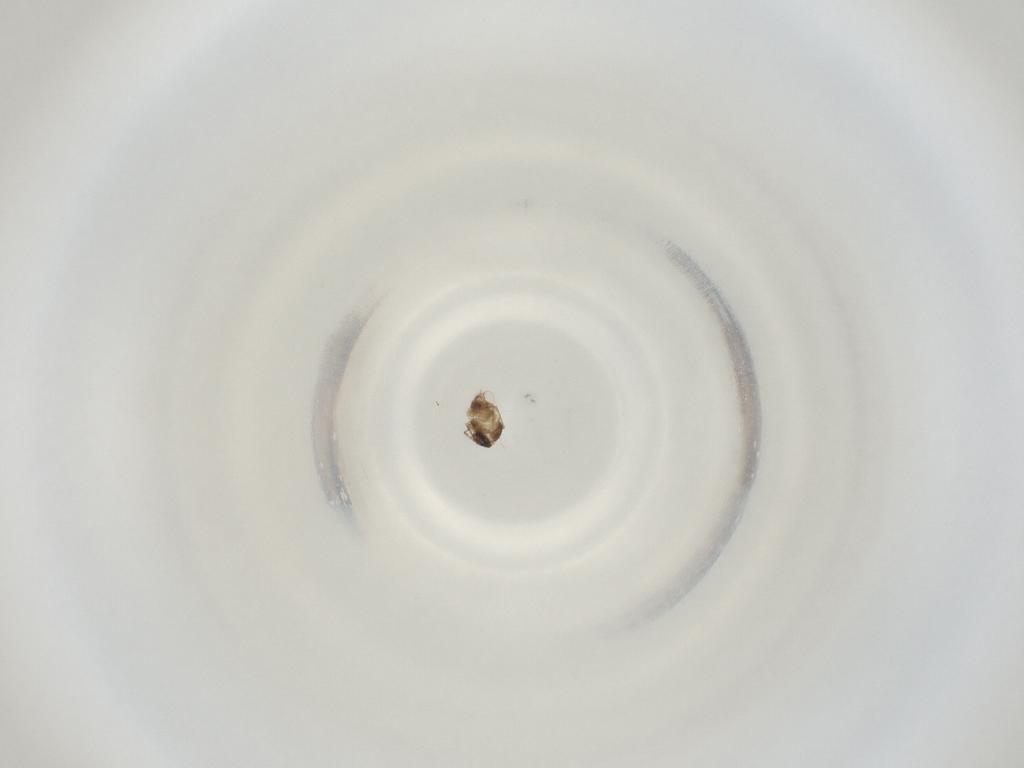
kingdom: Animalia
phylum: Arthropoda
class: Insecta
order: Diptera
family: Cecidomyiidae
